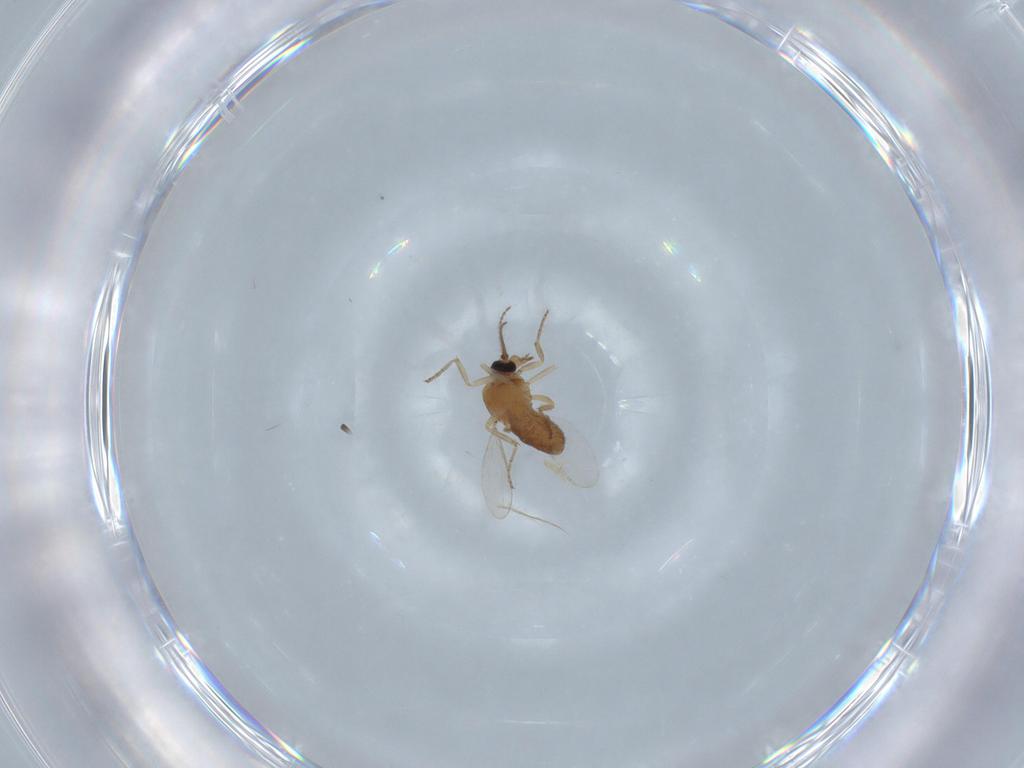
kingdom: Animalia
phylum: Arthropoda
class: Insecta
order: Diptera
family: Ceratopogonidae
